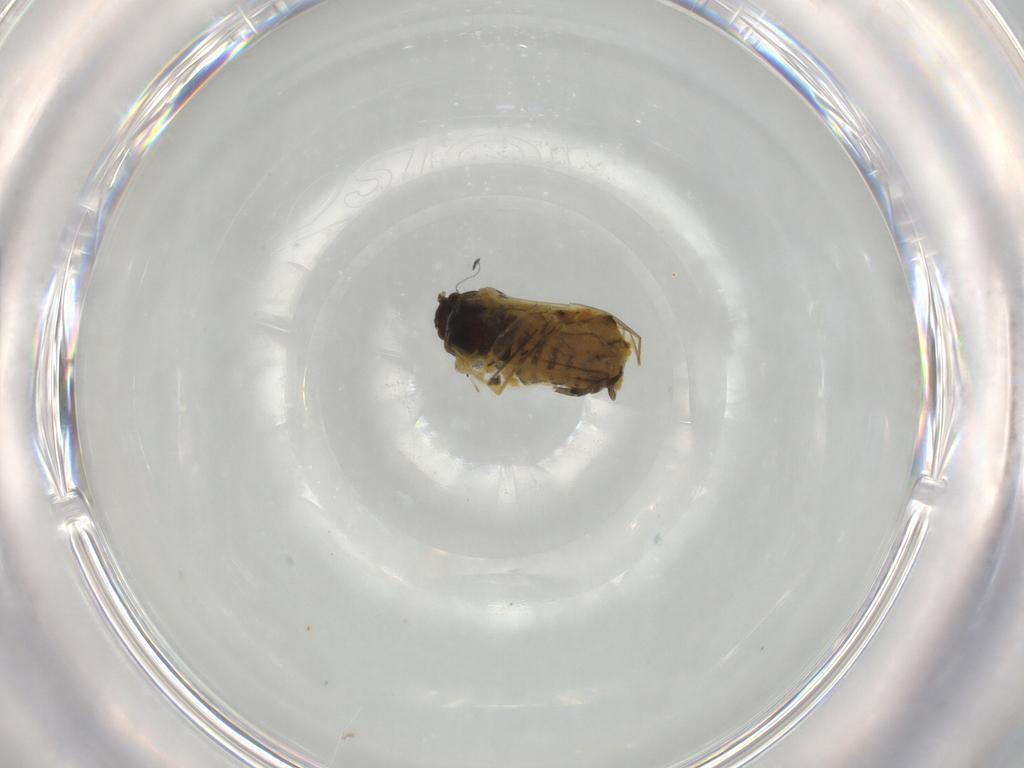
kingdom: Animalia
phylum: Arthropoda
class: Insecta
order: Hemiptera
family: Aphididae
